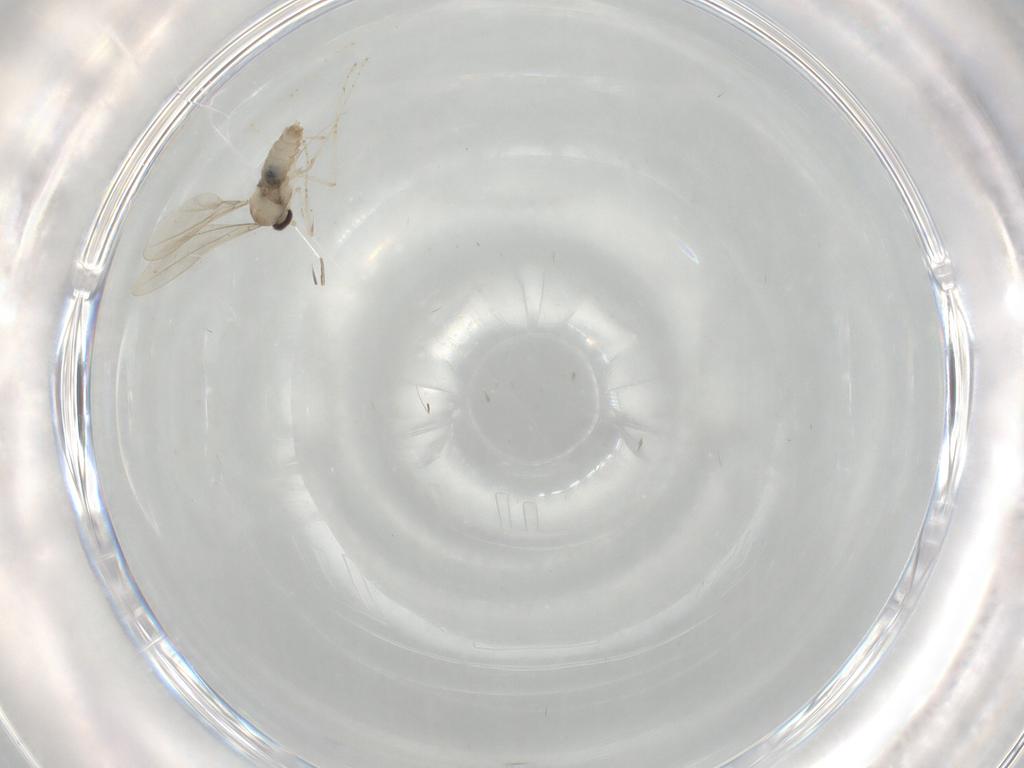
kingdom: Animalia
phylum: Arthropoda
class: Insecta
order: Diptera
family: Cecidomyiidae
